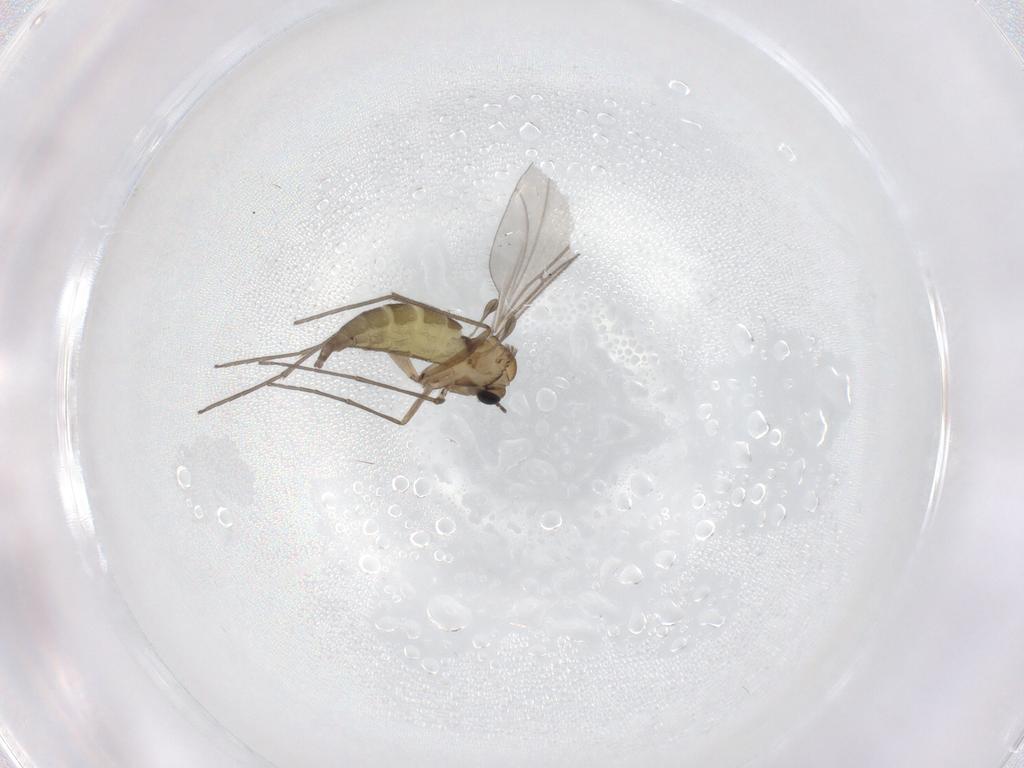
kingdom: Animalia
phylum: Arthropoda
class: Insecta
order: Diptera
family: Sciaridae
